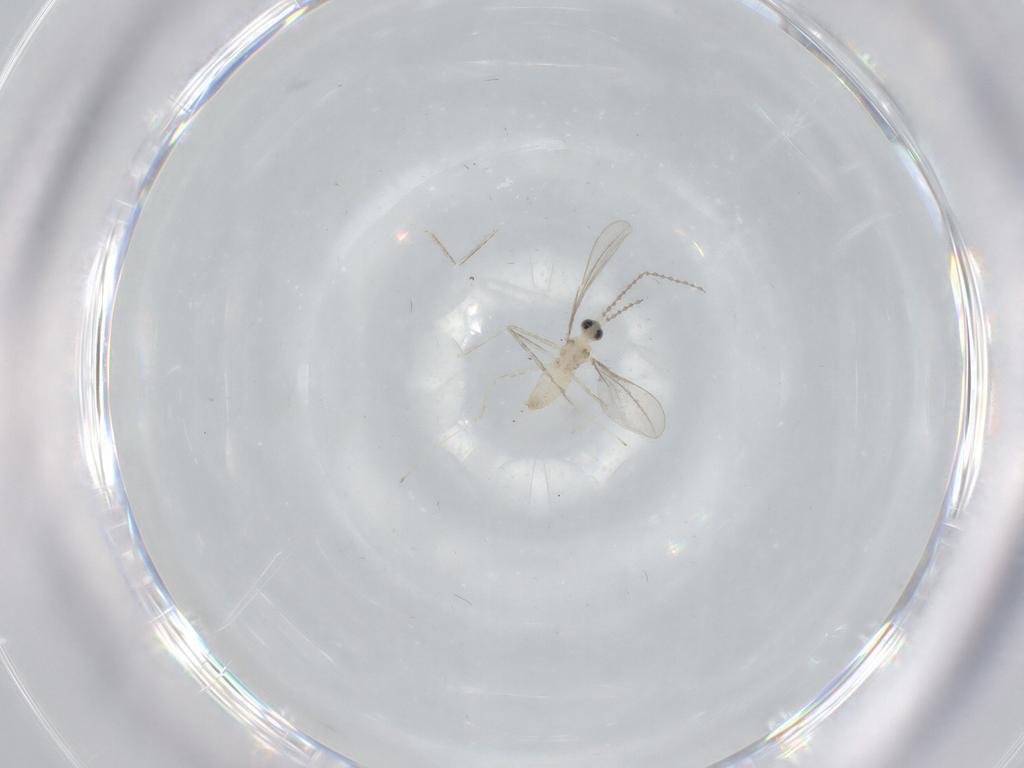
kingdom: Animalia
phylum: Arthropoda
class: Insecta
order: Diptera
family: Cecidomyiidae
